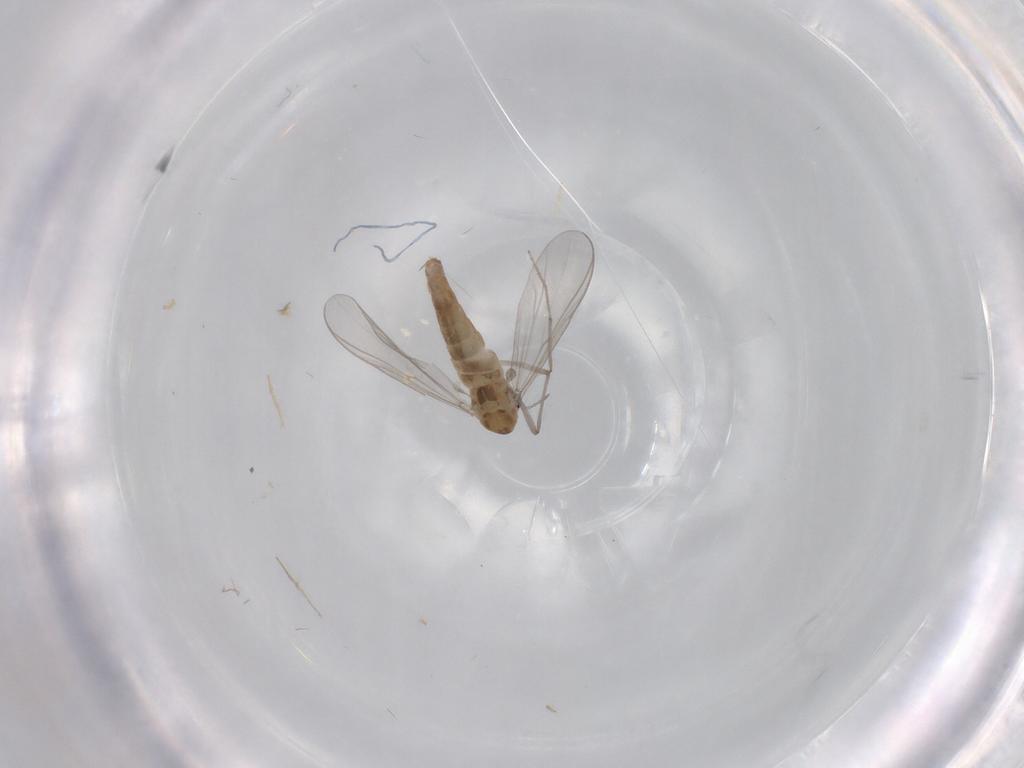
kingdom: Animalia
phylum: Arthropoda
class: Insecta
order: Diptera
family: Chironomidae
